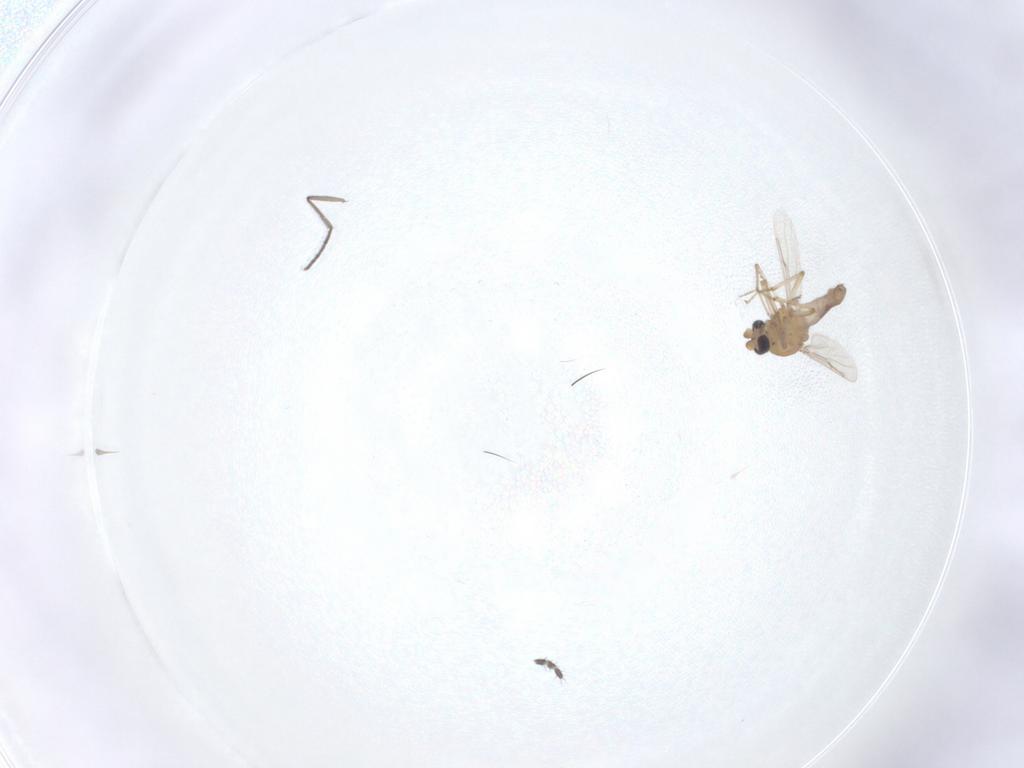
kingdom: Animalia
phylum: Arthropoda
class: Insecta
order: Diptera
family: Sciaridae
